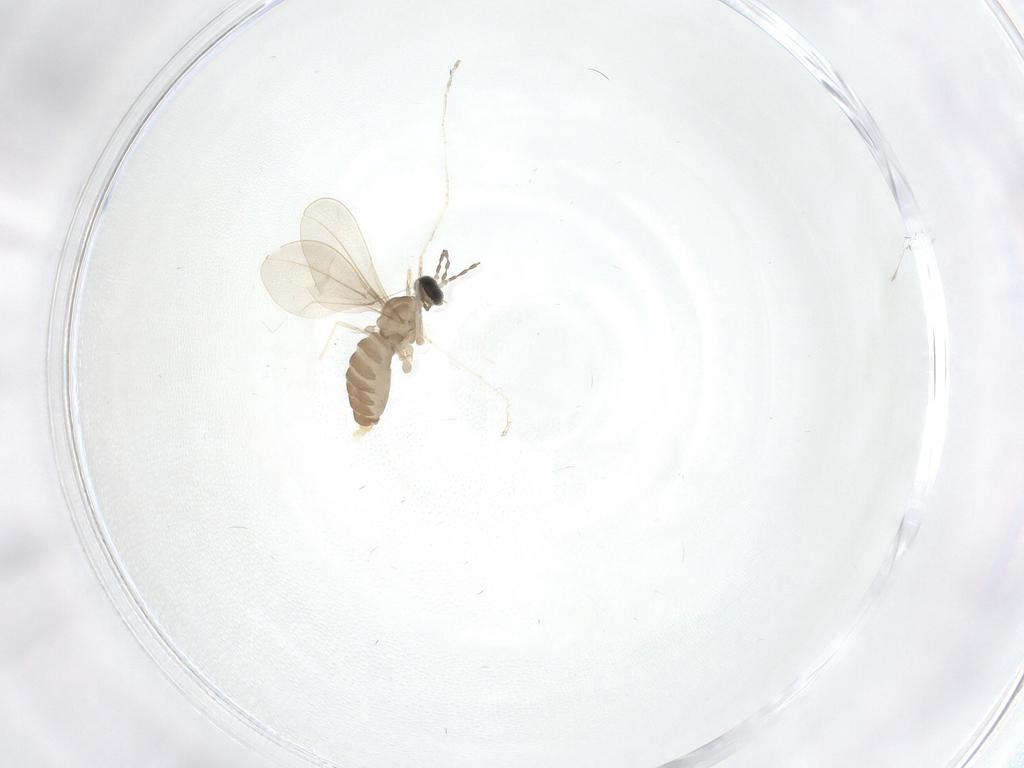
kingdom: Animalia
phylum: Arthropoda
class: Insecta
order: Diptera
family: Cecidomyiidae
